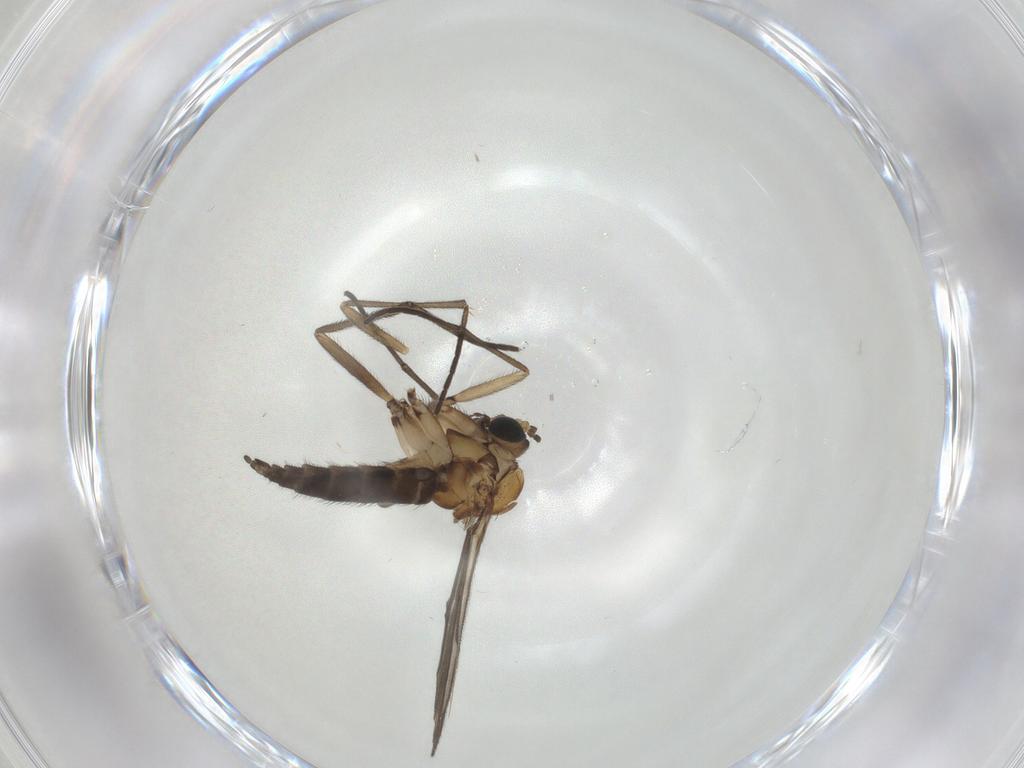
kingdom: Animalia
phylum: Arthropoda
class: Insecta
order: Diptera
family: Sciaridae
